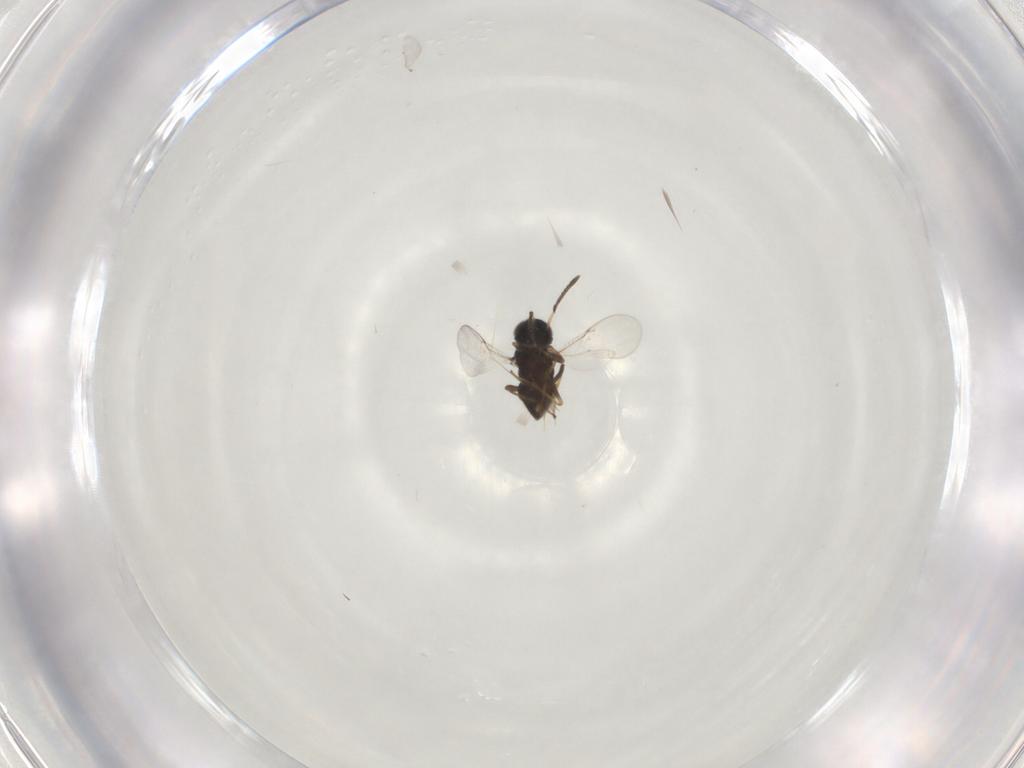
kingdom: Animalia
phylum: Arthropoda
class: Insecta
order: Hemiptera
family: Miridae
